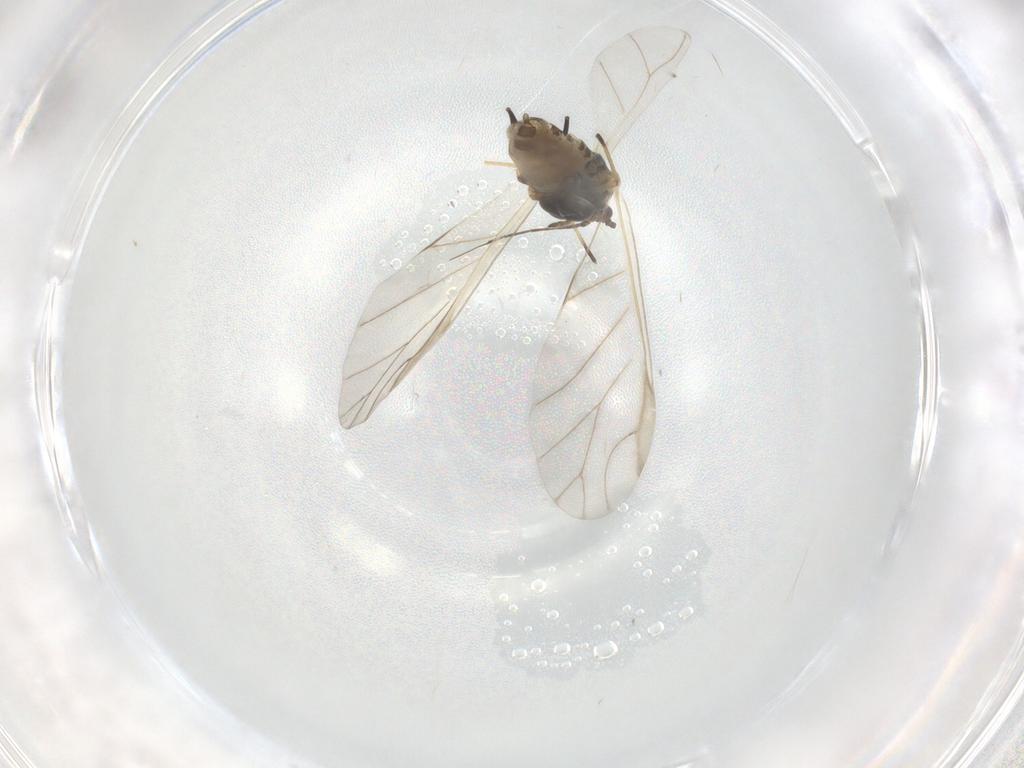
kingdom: Animalia
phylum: Arthropoda
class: Insecta
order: Hemiptera
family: Aphididae
